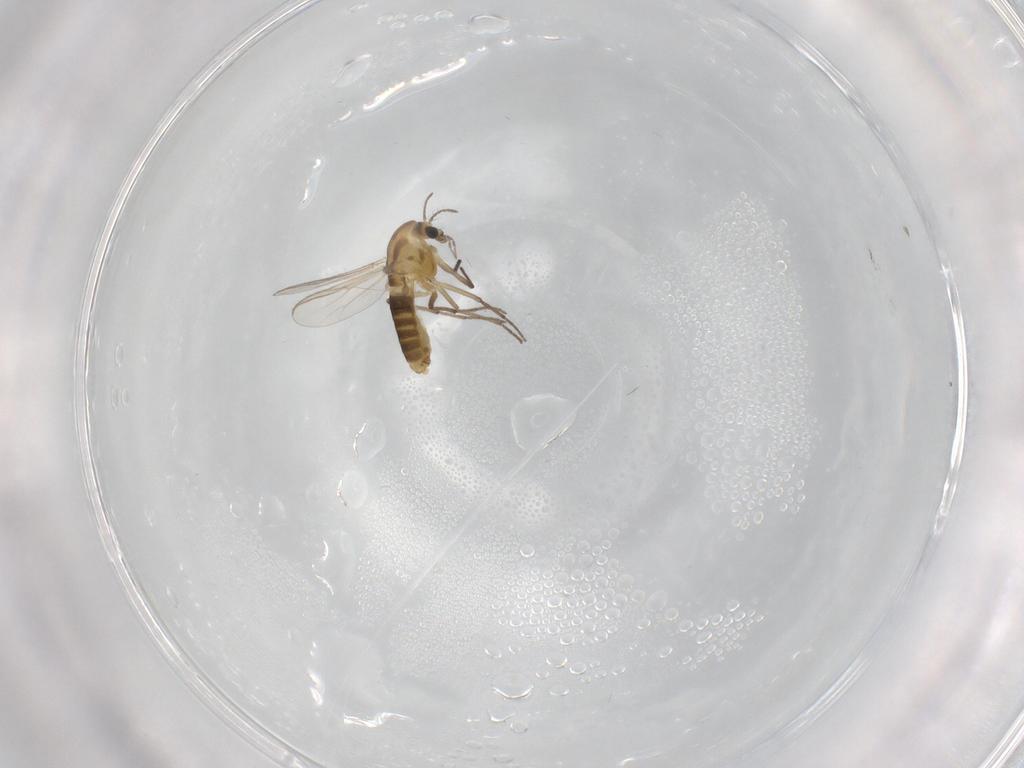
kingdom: Animalia
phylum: Arthropoda
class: Insecta
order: Diptera
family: Chironomidae
